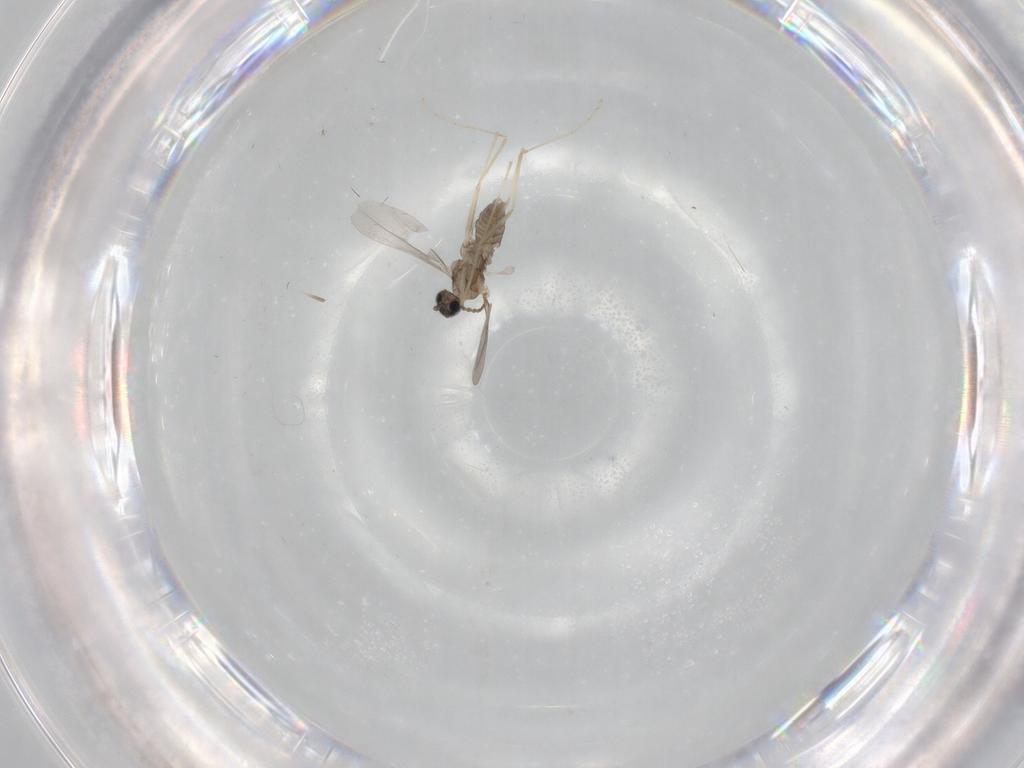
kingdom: Animalia
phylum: Arthropoda
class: Insecta
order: Diptera
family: Cecidomyiidae
